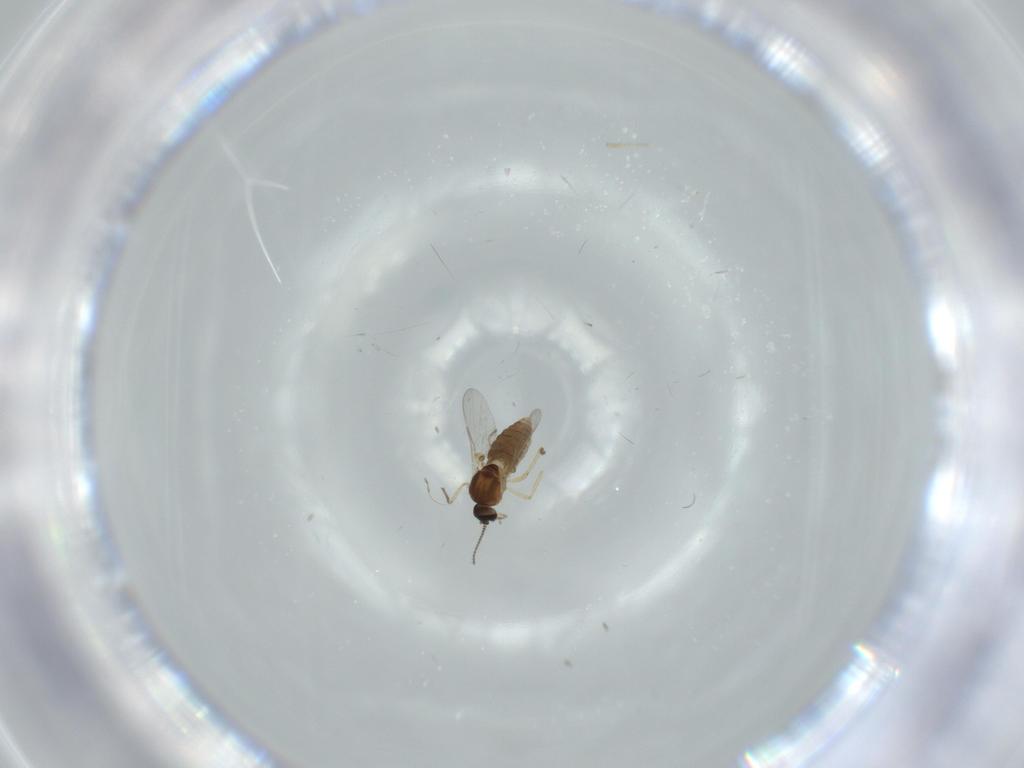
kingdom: Animalia
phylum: Arthropoda
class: Insecta
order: Diptera
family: Ceratopogonidae
